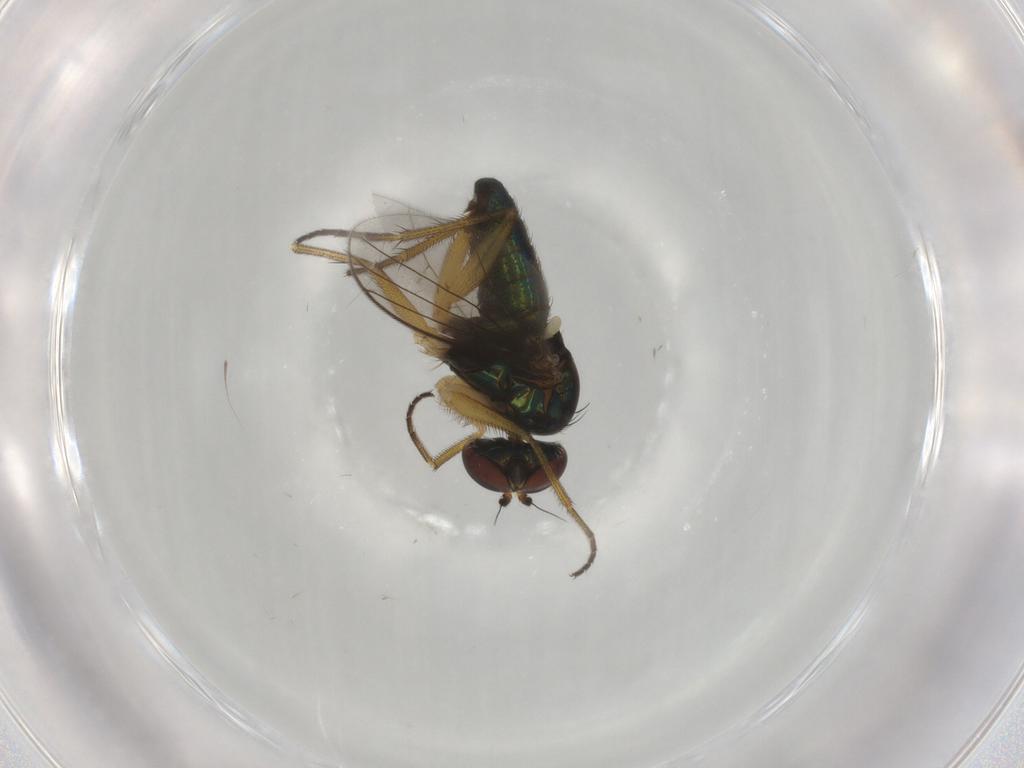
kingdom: Animalia
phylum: Arthropoda
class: Insecta
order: Diptera
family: Dolichopodidae
